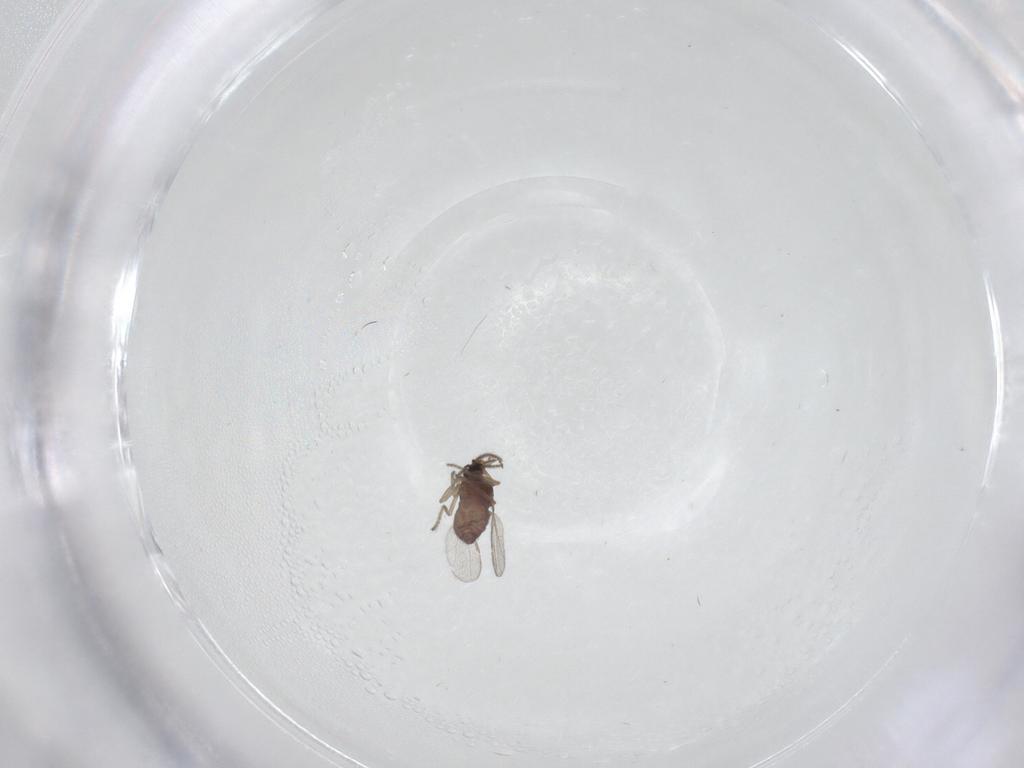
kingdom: Animalia
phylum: Arthropoda
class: Insecta
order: Diptera
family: Ceratopogonidae
